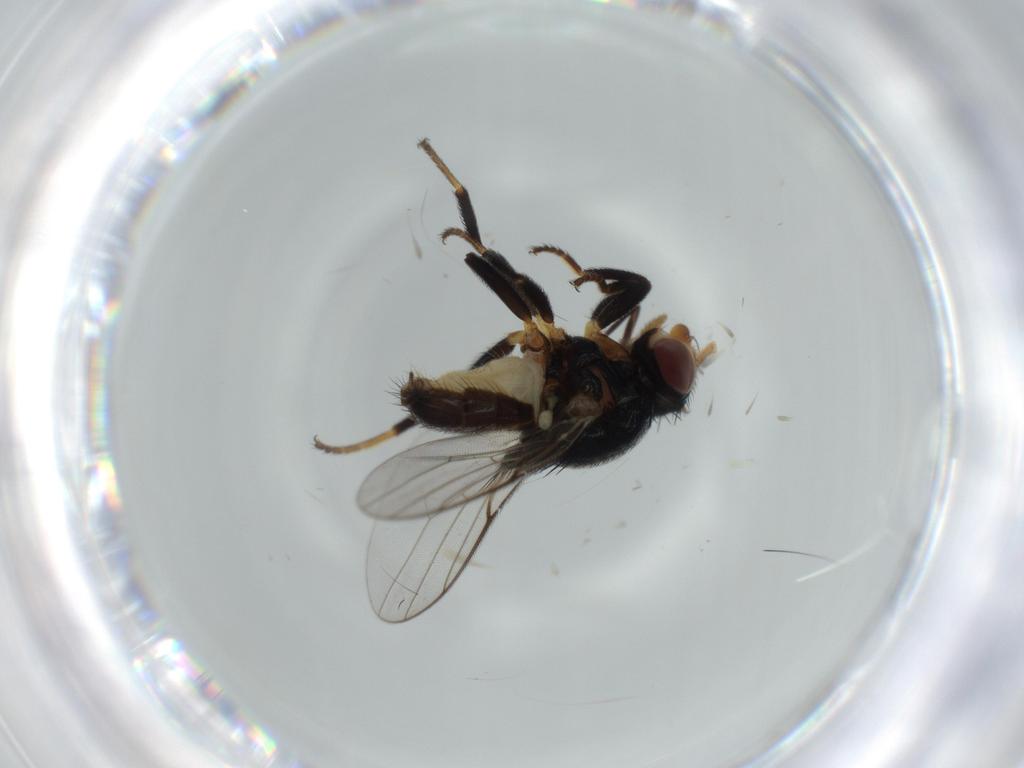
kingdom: Animalia
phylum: Arthropoda
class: Insecta
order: Diptera
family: Chloropidae
